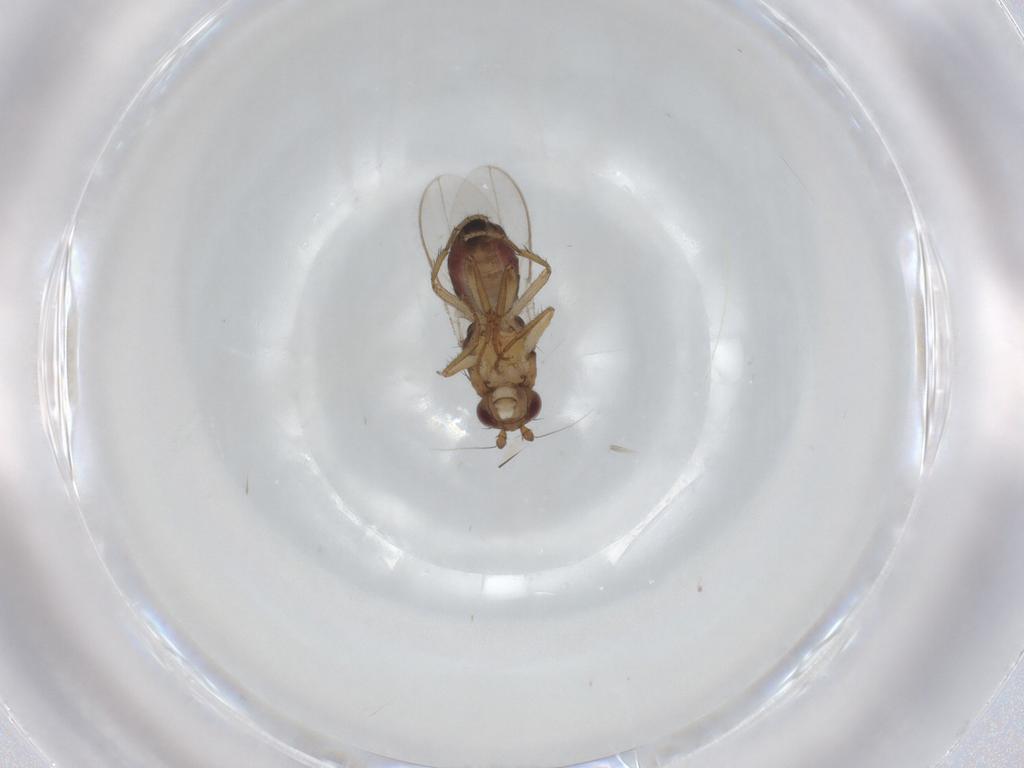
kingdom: Animalia
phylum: Arthropoda
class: Insecta
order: Diptera
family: Sphaeroceridae
